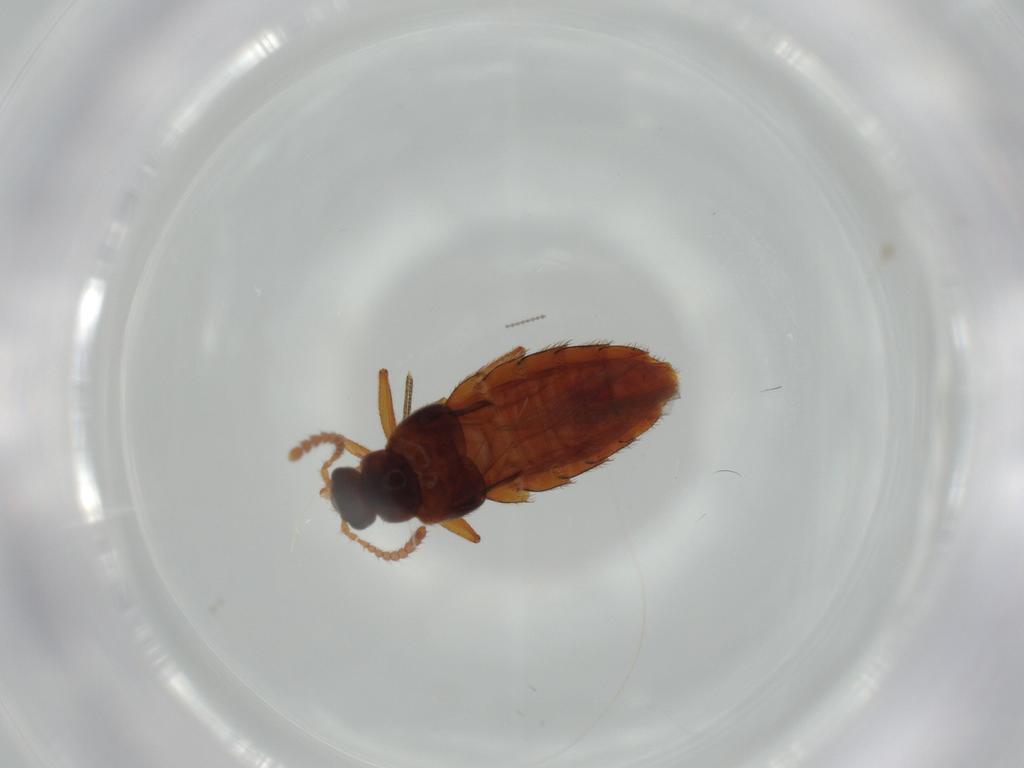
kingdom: Animalia
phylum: Arthropoda
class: Insecta
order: Coleoptera
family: Staphylinidae
